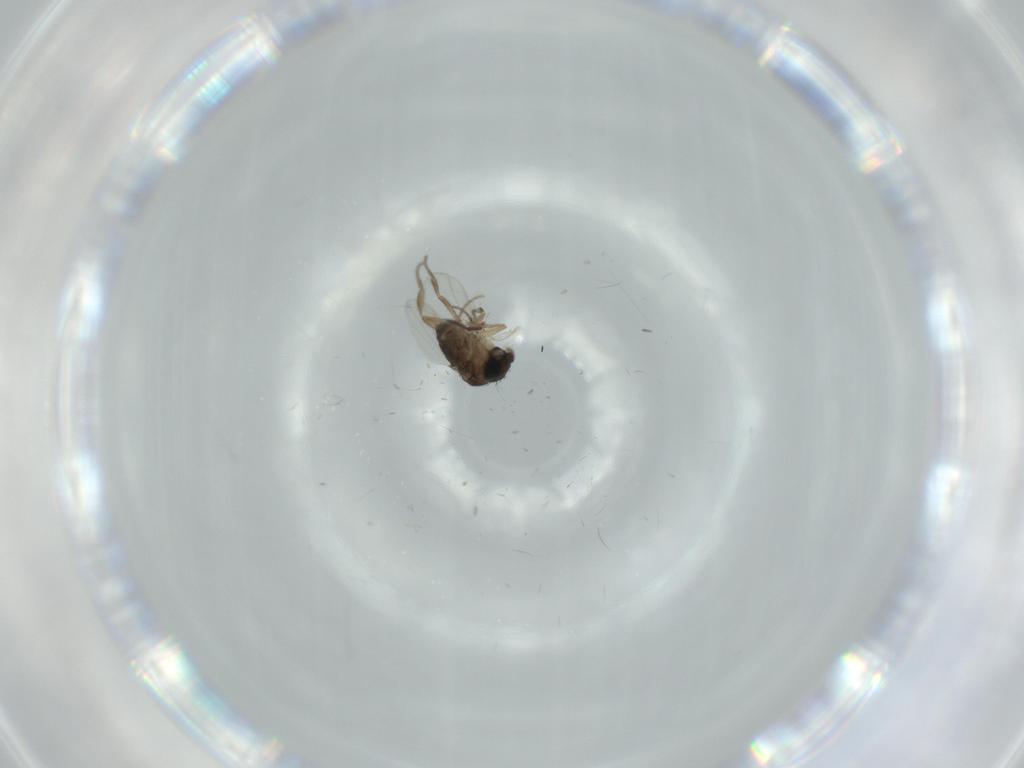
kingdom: Animalia
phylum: Arthropoda
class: Insecta
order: Diptera
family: Phoridae
